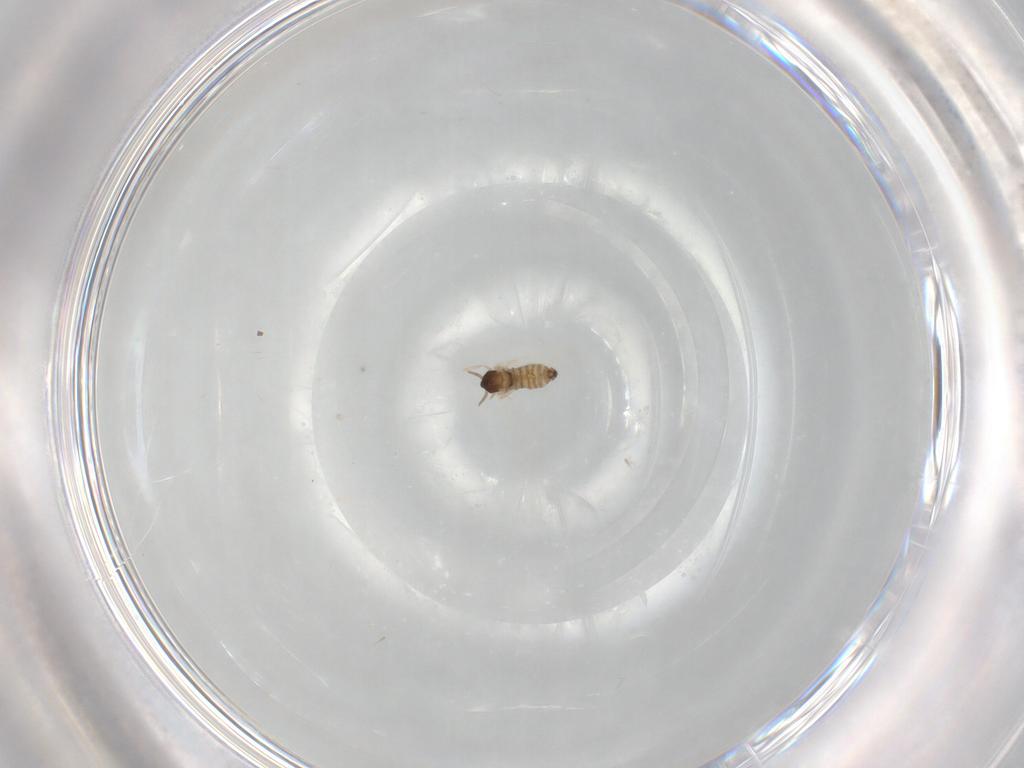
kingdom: Animalia
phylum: Arthropoda
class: Insecta
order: Diptera
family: Cecidomyiidae
